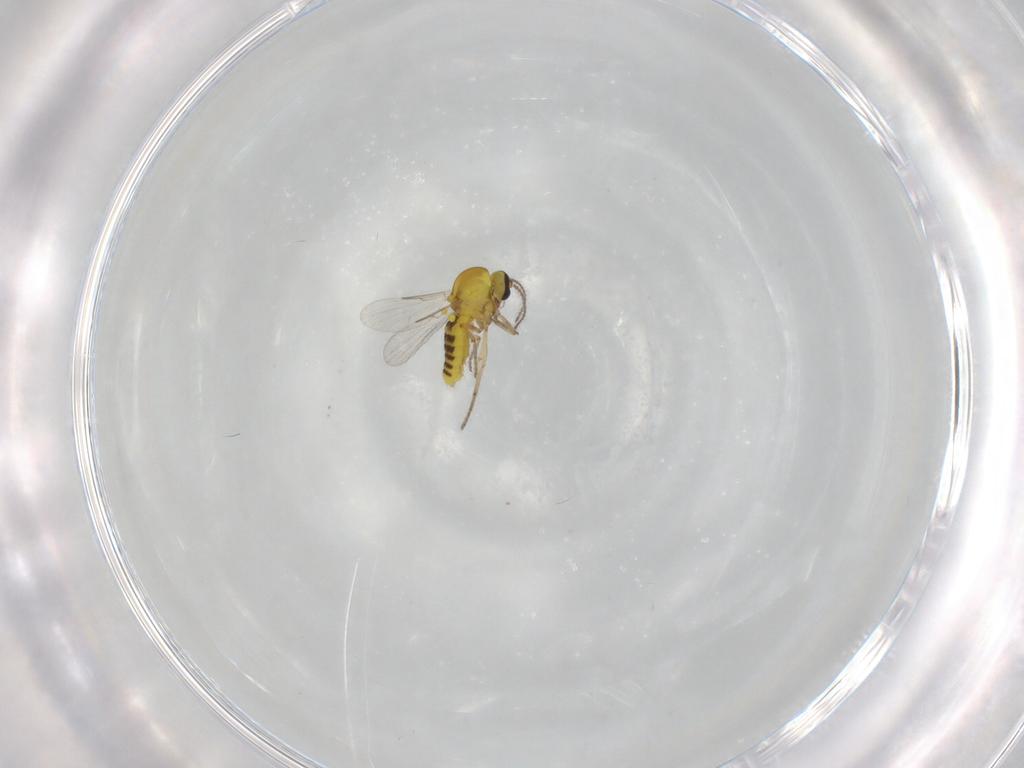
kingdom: Animalia
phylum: Arthropoda
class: Insecta
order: Diptera
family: Ceratopogonidae
